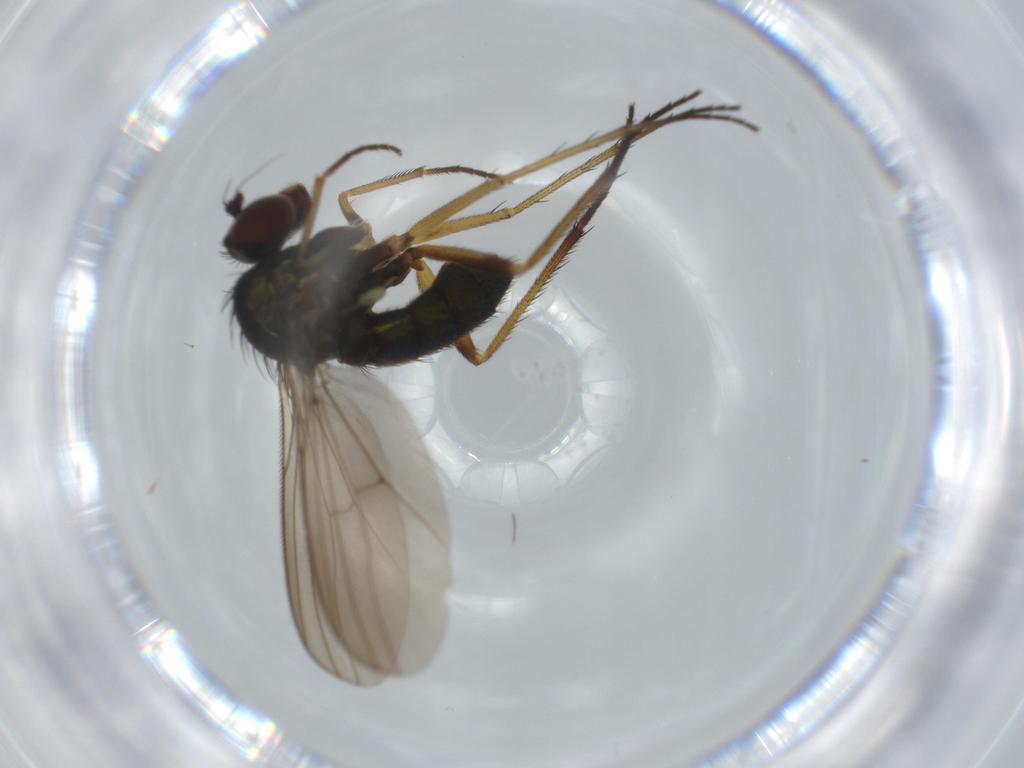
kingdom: Animalia
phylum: Arthropoda
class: Insecta
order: Diptera
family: Dolichopodidae
